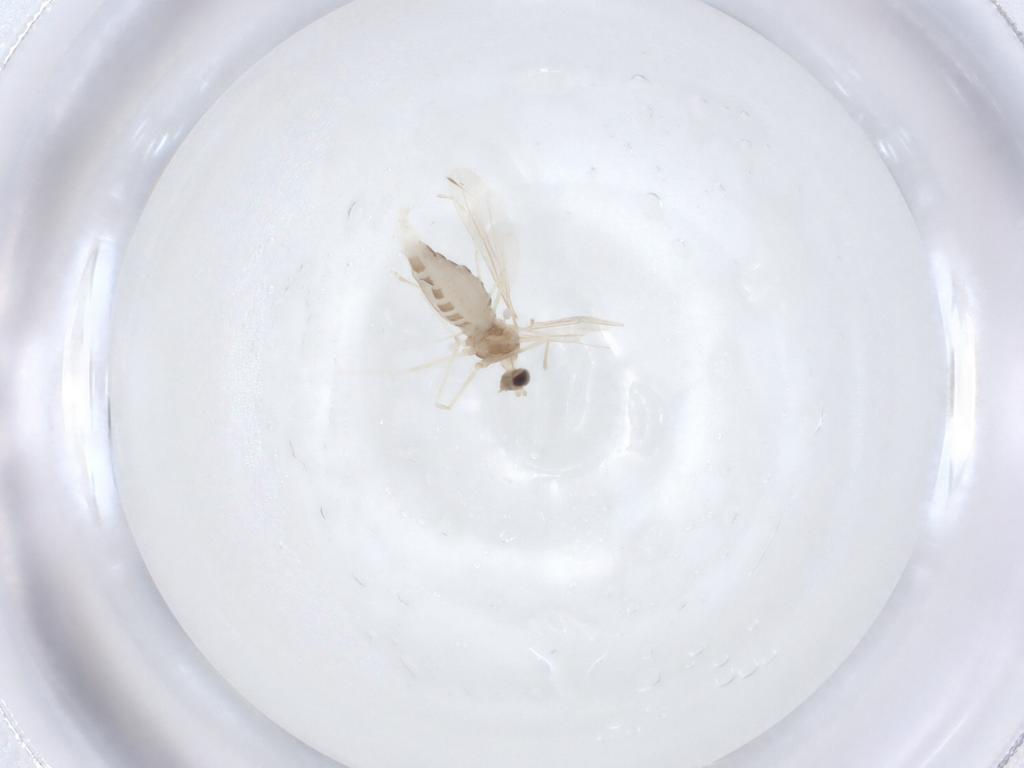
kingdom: Animalia
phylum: Arthropoda
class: Insecta
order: Diptera
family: Cecidomyiidae
